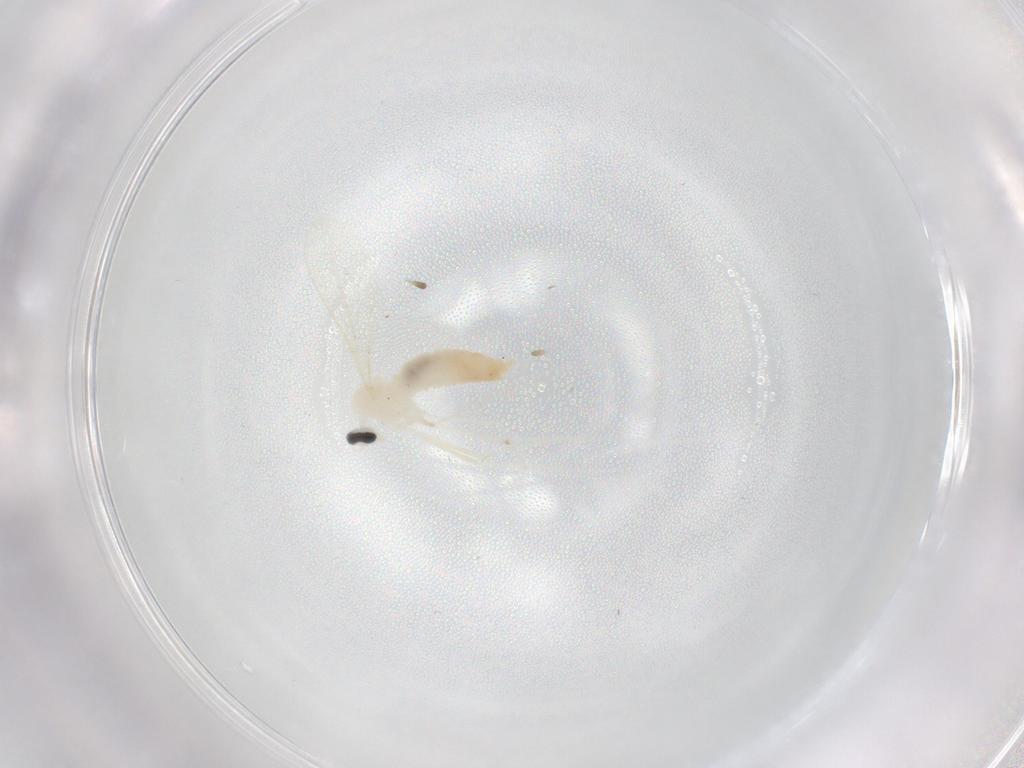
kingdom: Animalia
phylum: Arthropoda
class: Insecta
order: Diptera
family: Cecidomyiidae
